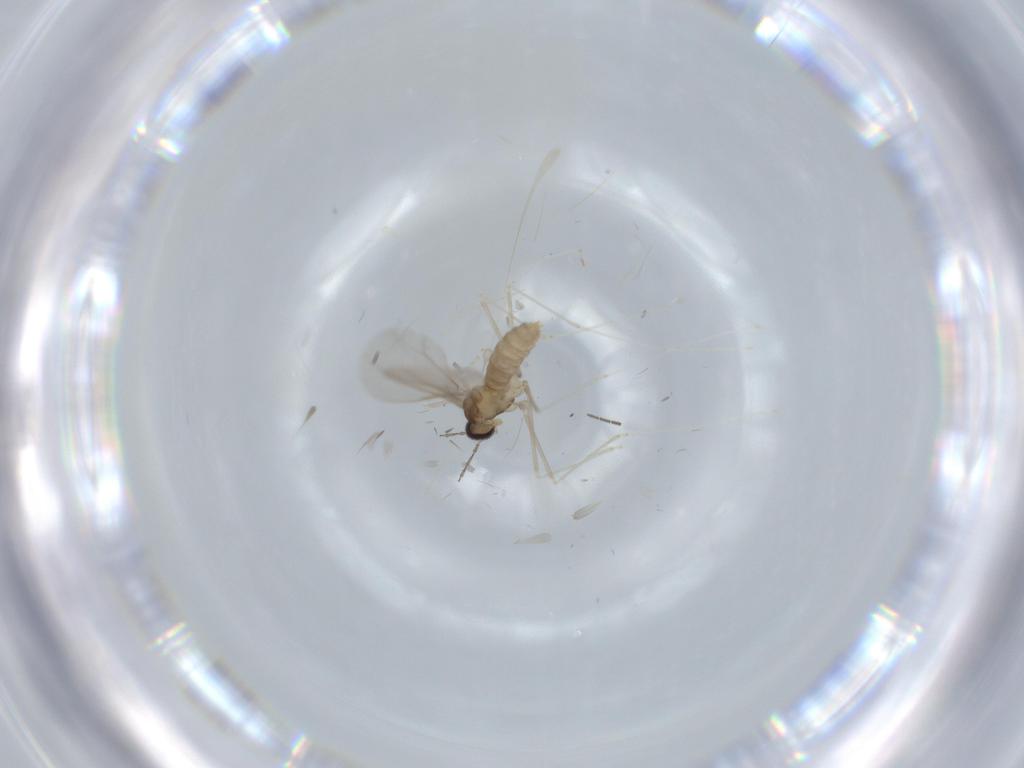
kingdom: Animalia
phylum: Arthropoda
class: Insecta
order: Diptera
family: Cecidomyiidae
